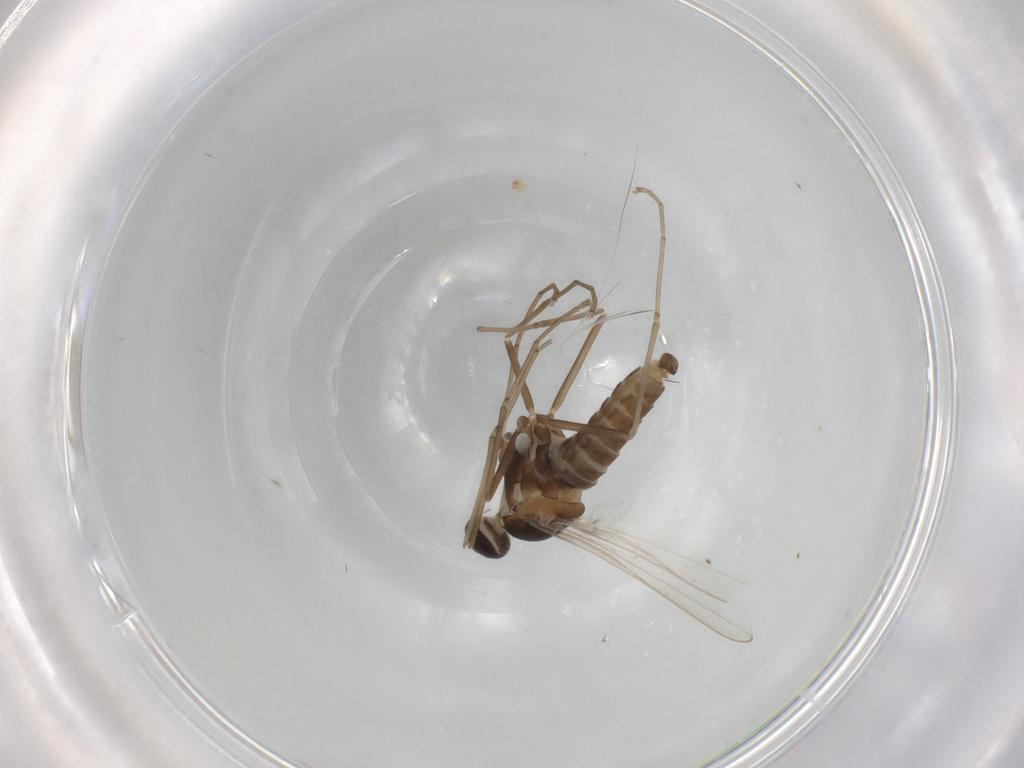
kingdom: Animalia
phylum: Arthropoda
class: Insecta
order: Diptera
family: Cecidomyiidae
